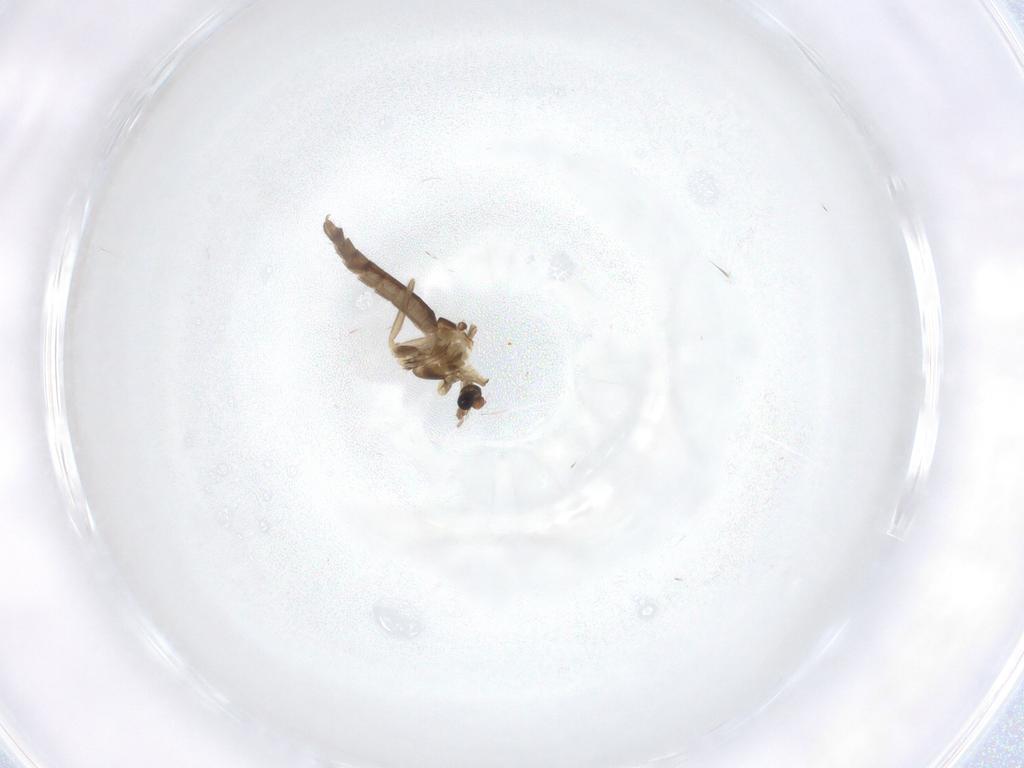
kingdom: Animalia
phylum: Arthropoda
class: Insecta
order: Diptera
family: Chironomidae
